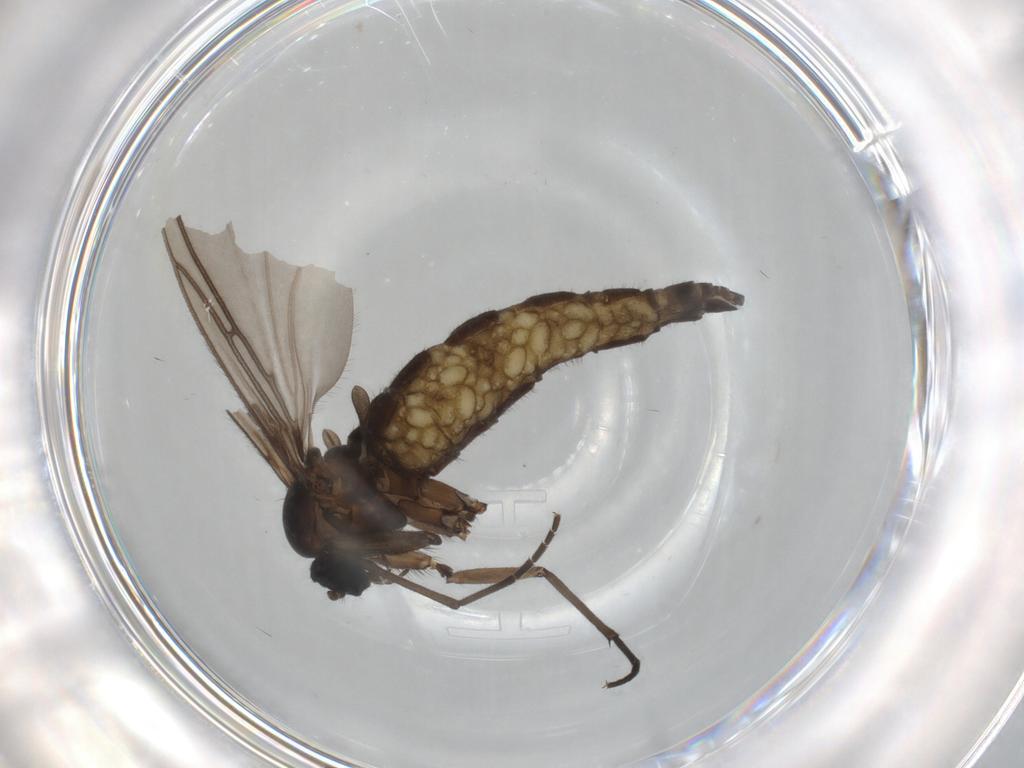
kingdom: Animalia
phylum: Arthropoda
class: Insecta
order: Diptera
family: Sciaridae
